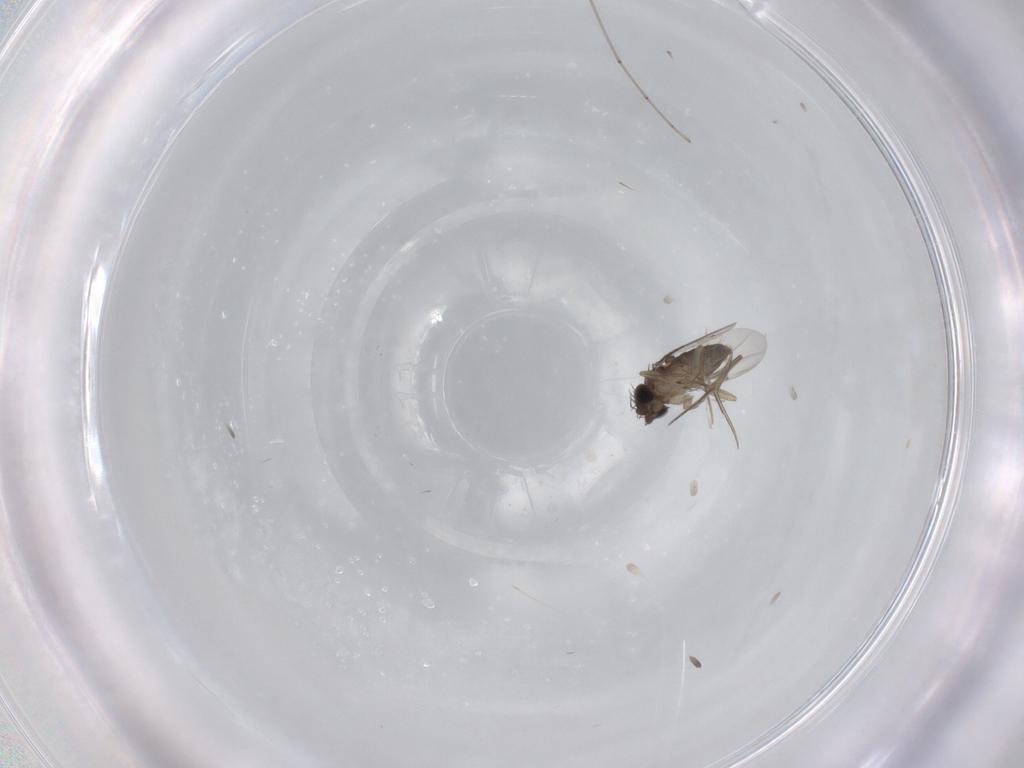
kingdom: Animalia
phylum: Arthropoda
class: Insecta
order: Diptera
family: Phoridae
